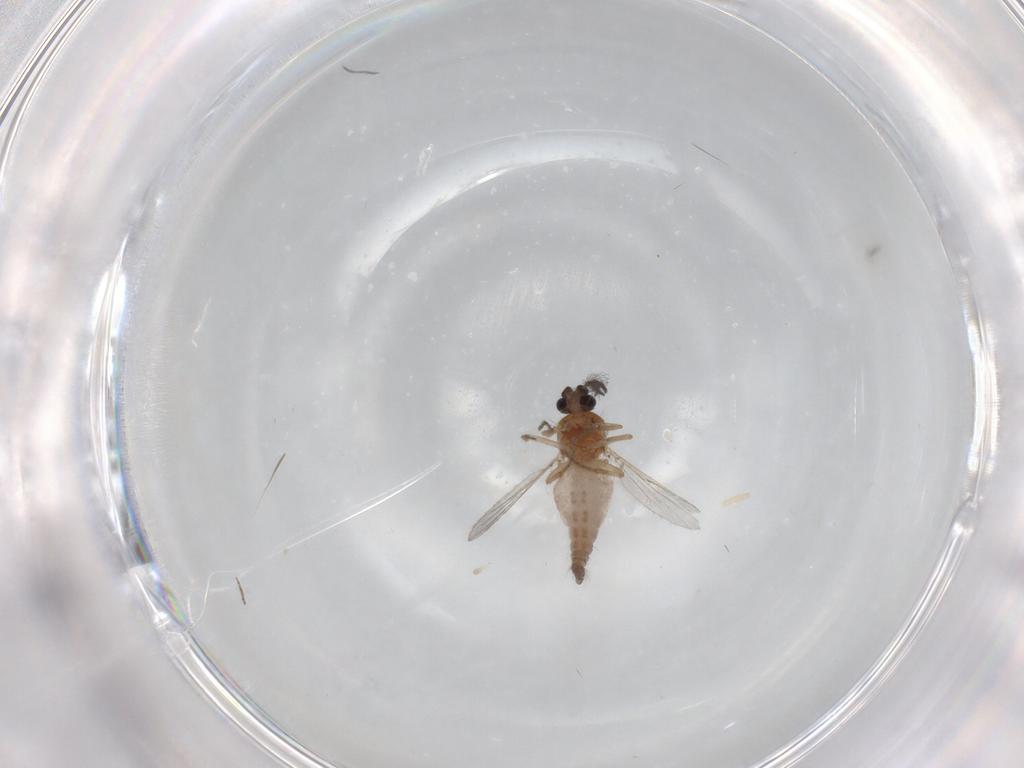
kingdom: Animalia
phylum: Arthropoda
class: Insecta
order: Diptera
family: Ceratopogonidae
